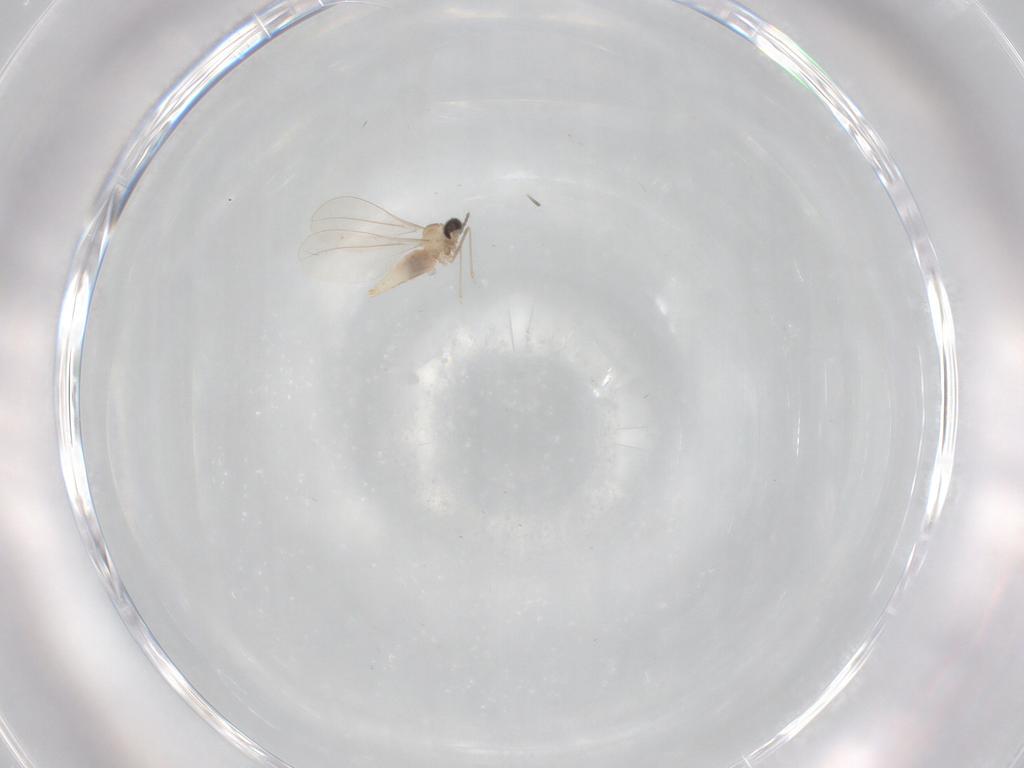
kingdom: Animalia
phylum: Arthropoda
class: Insecta
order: Diptera
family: Cecidomyiidae
